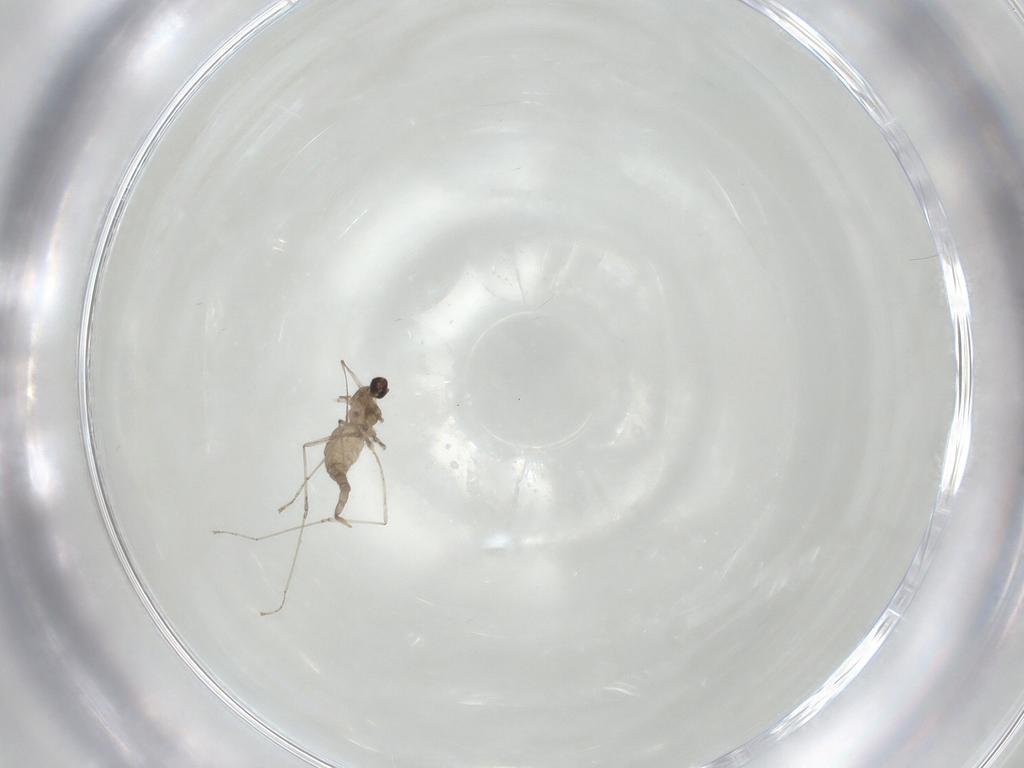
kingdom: Animalia
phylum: Arthropoda
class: Insecta
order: Diptera
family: Cecidomyiidae
